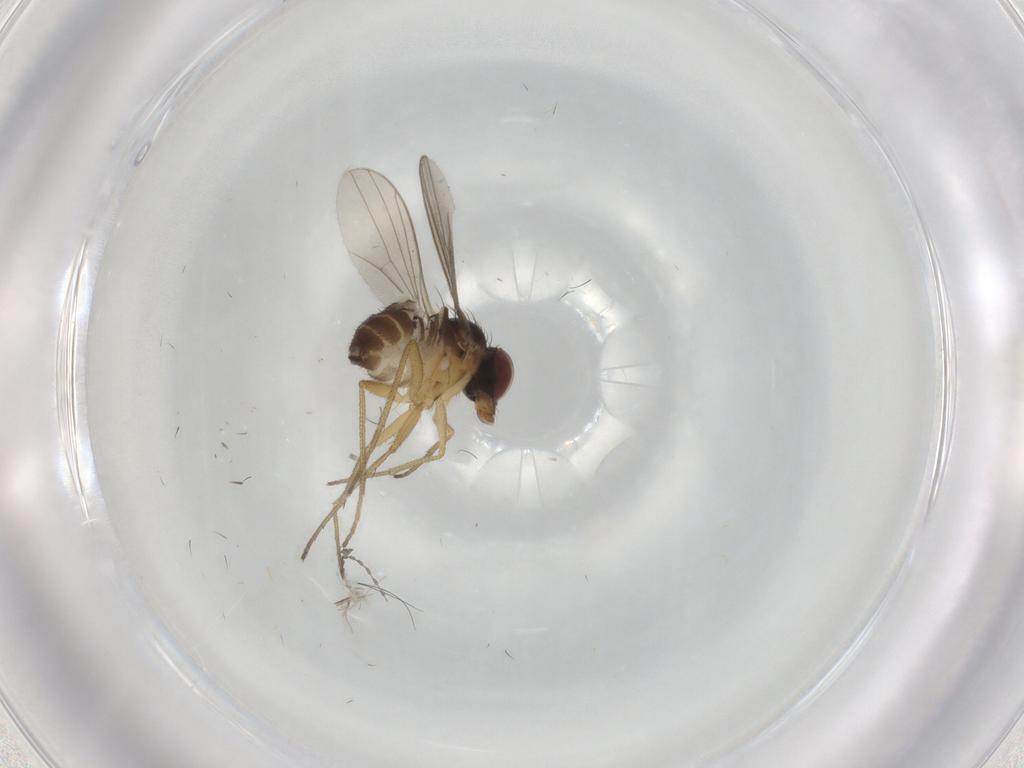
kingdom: Animalia
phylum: Arthropoda
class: Insecta
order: Diptera
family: Dolichopodidae
